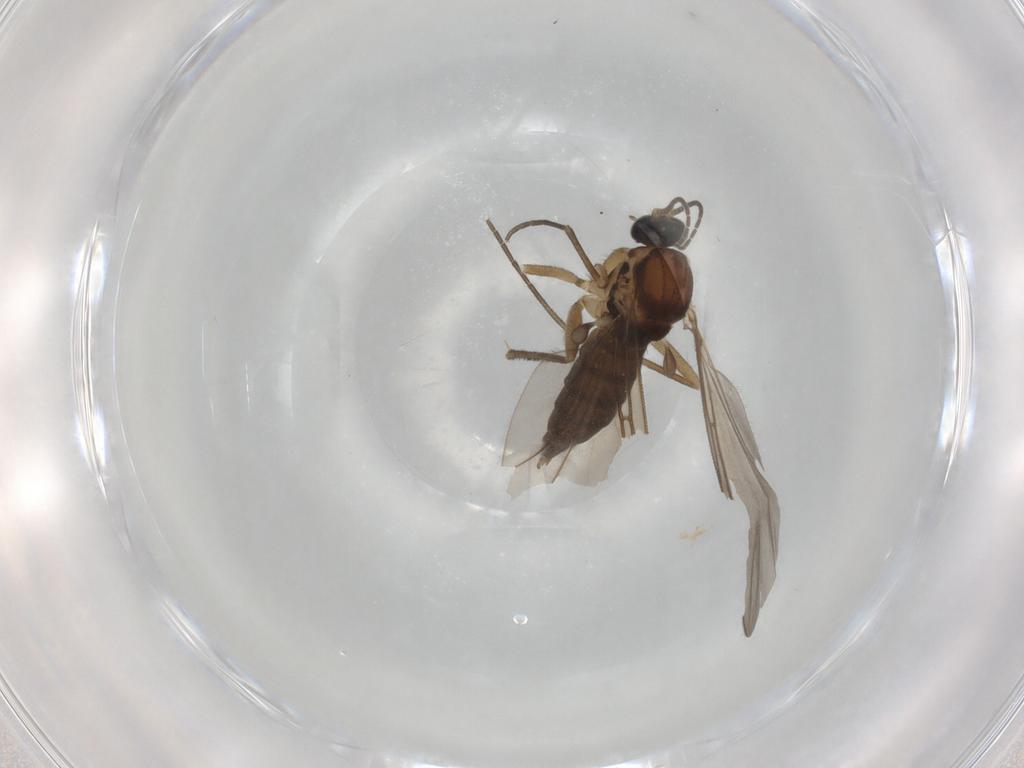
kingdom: Animalia
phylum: Arthropoda
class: Insecta
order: Diptera
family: Sciaridae
